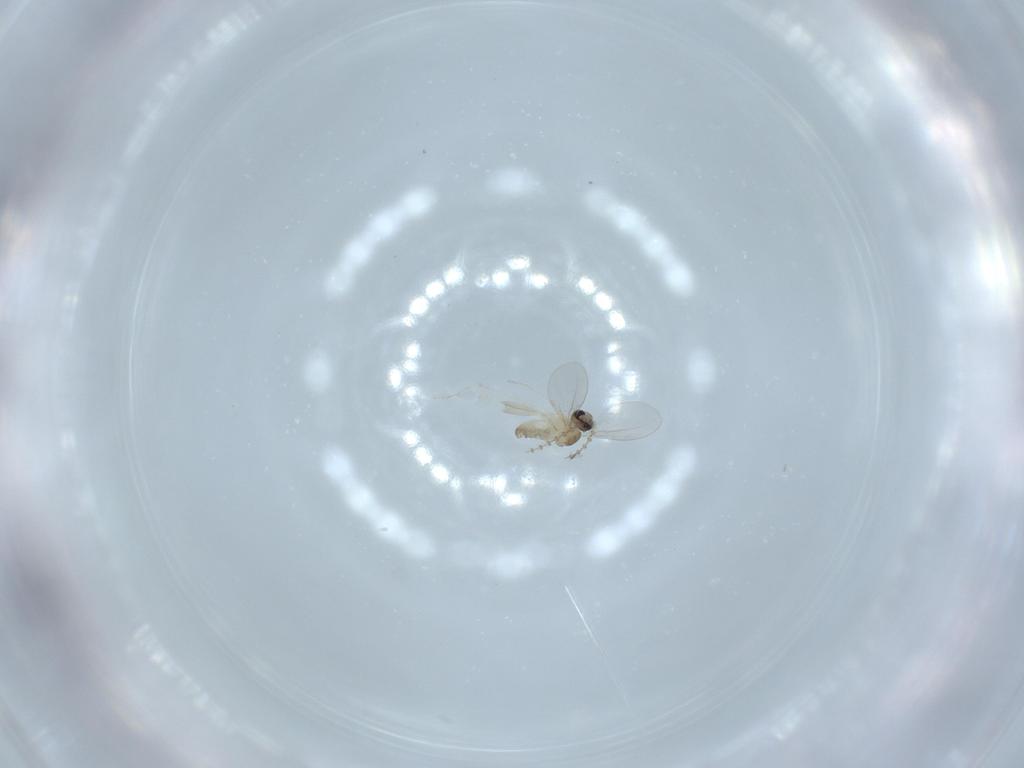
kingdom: Animalia
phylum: Arthropoda
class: Insecta
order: Diptera
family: Cecidomyiidae
